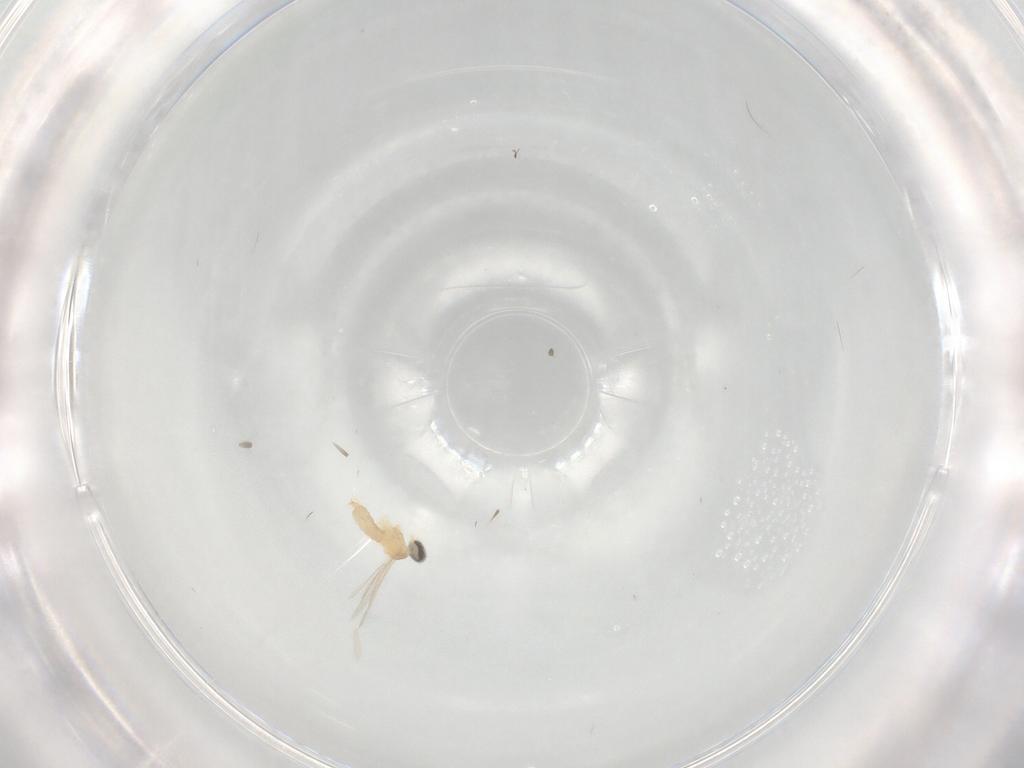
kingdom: Animalia
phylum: Arthropoda
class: Insecta
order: Diptera
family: Cecidomyiidae
